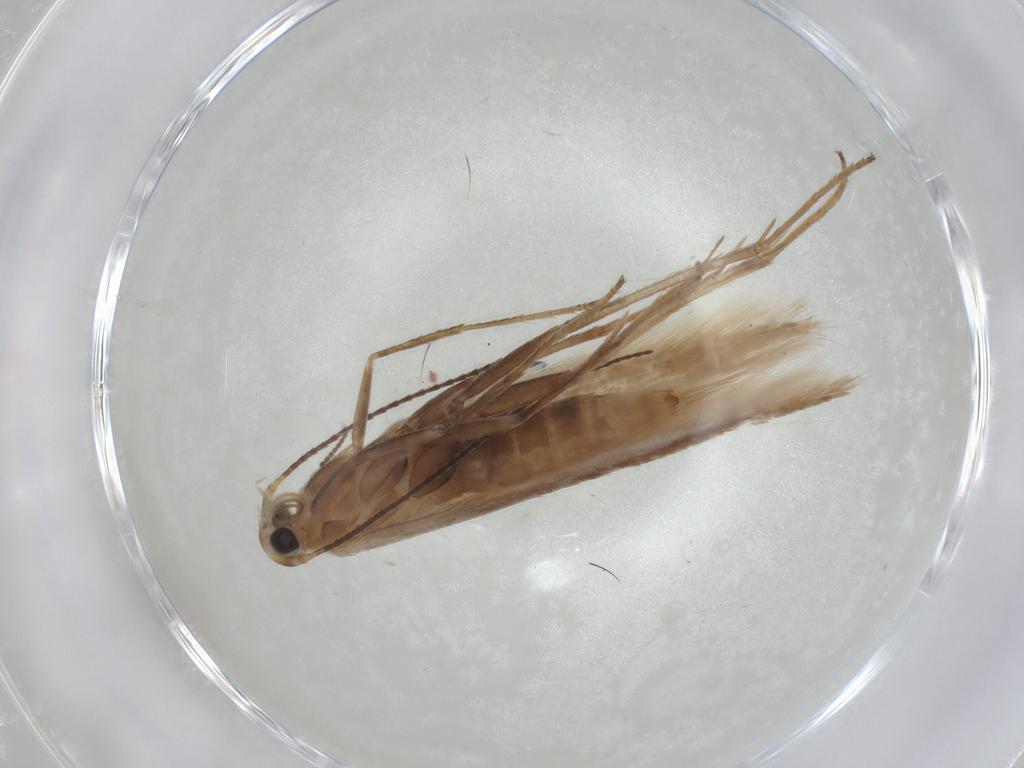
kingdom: Animalia
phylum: Arthropoda
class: Insecta
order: Lepidoptera
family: Coleophoridae
